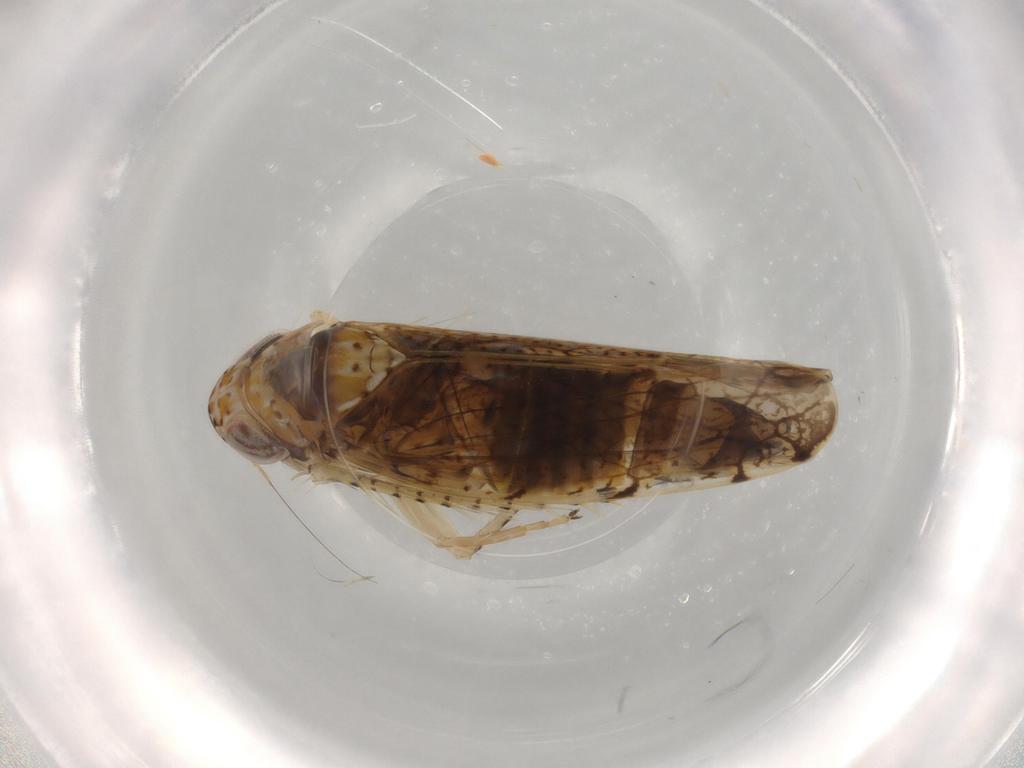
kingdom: Animalia
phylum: Arthropoda
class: Insecta
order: Hemiptera
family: Cicadellidae
